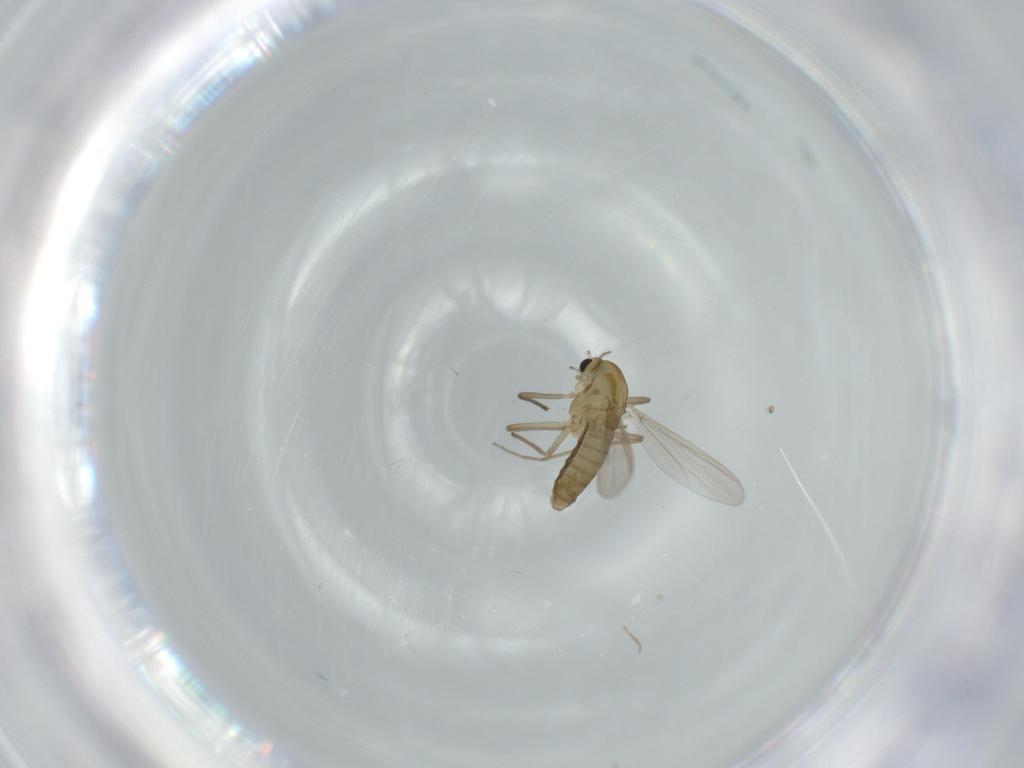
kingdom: Animalia
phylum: Arthropoda
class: Insecta
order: Diptera
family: Chironomidae
